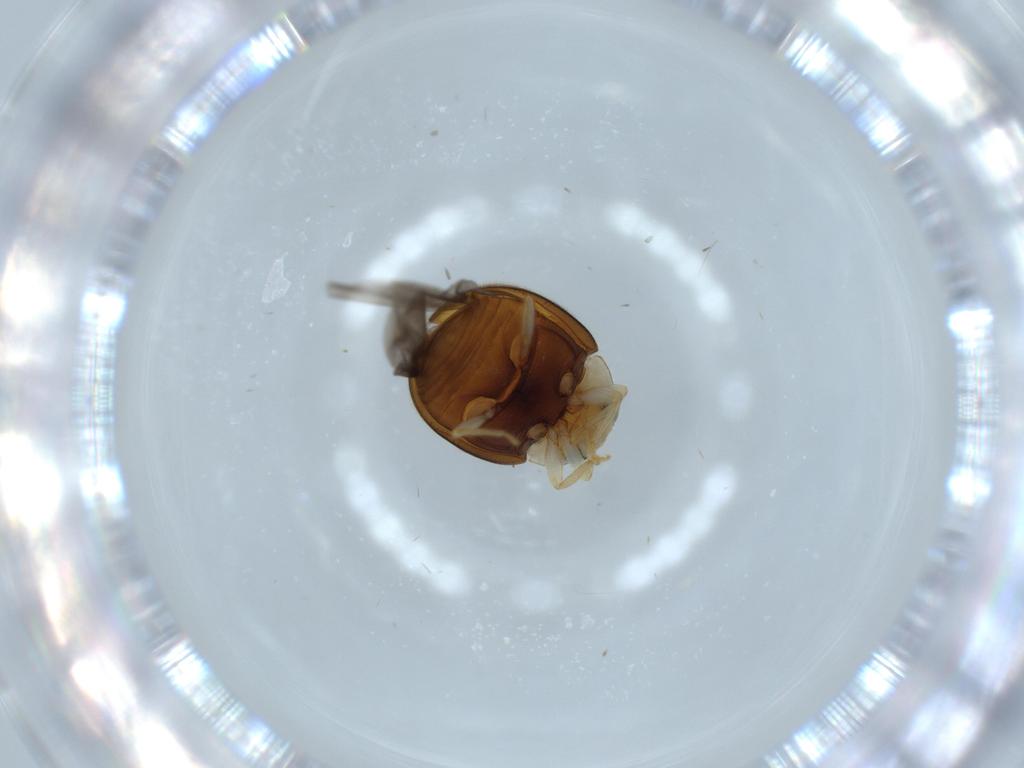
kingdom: Animalia
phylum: Arthropoda
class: Insecta
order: Coleoptera
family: Coccinellidae
